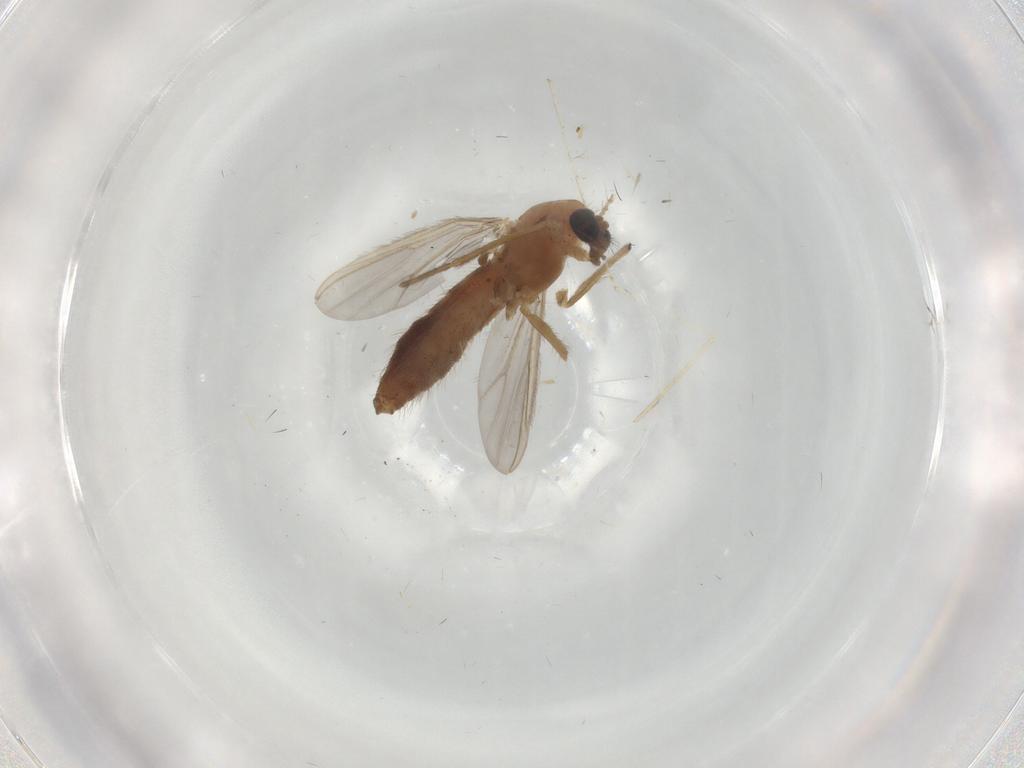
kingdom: Animalia
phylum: Arthropoda
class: Insecta
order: Diptera
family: Chironomidae
